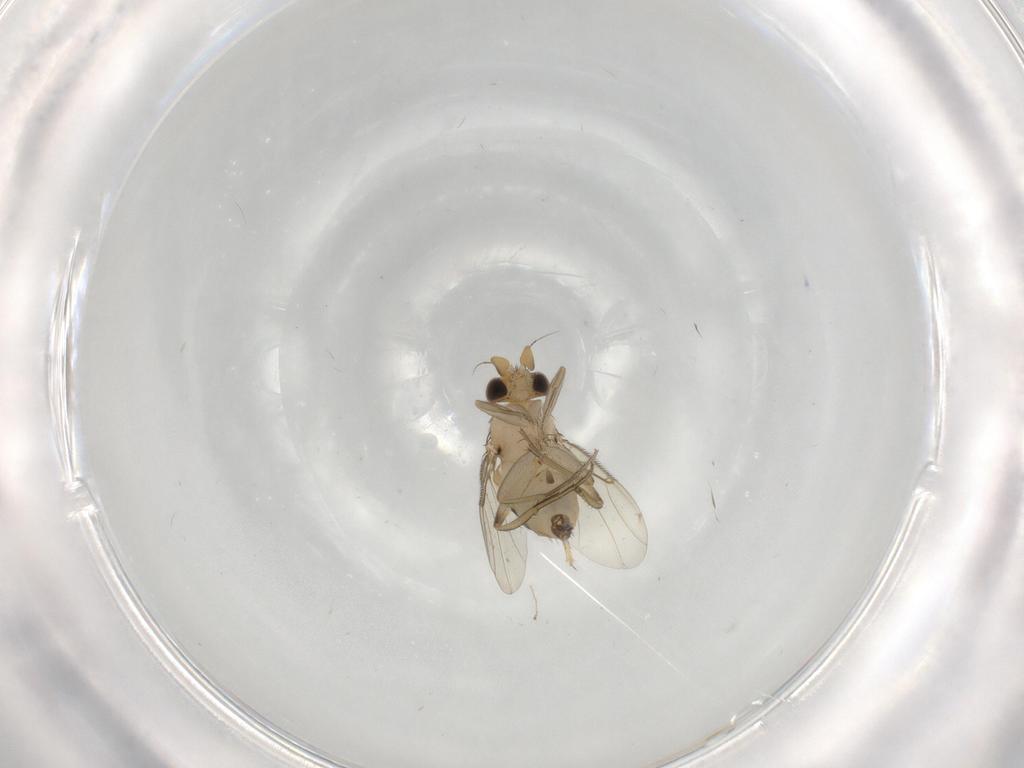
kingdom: Animalia
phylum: Arthropoda
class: Insecta
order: Diptera
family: Phoridae
